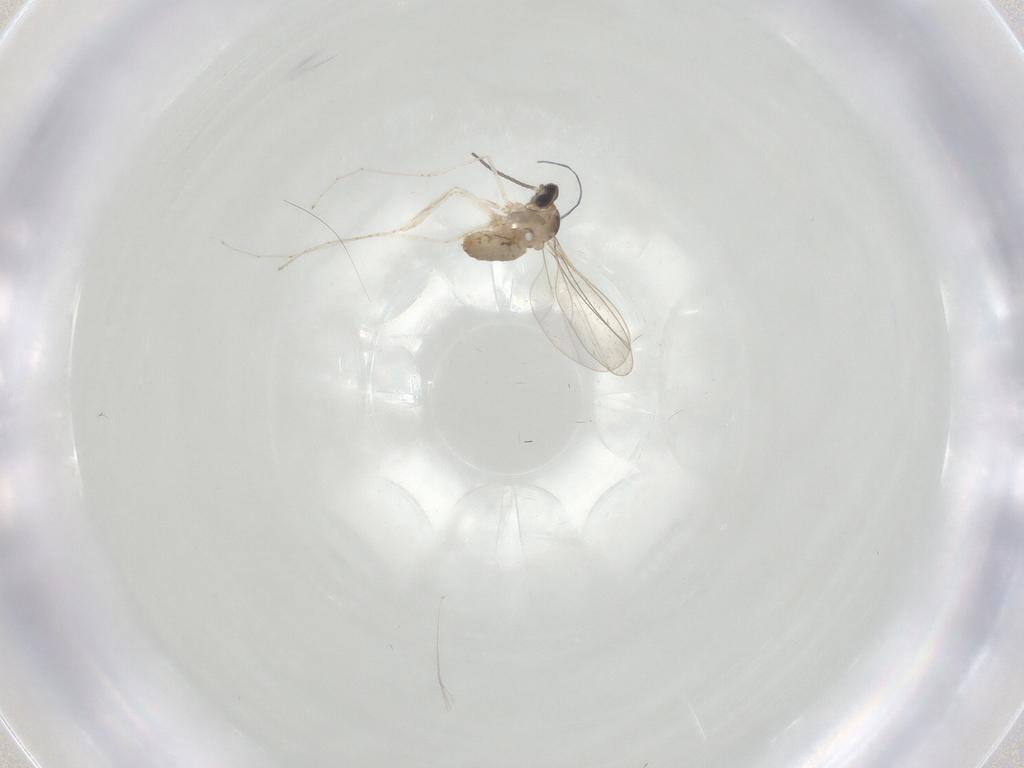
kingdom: Animalia
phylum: Arthropoda
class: Insecta
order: Diptera
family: Cecidomyiidae
